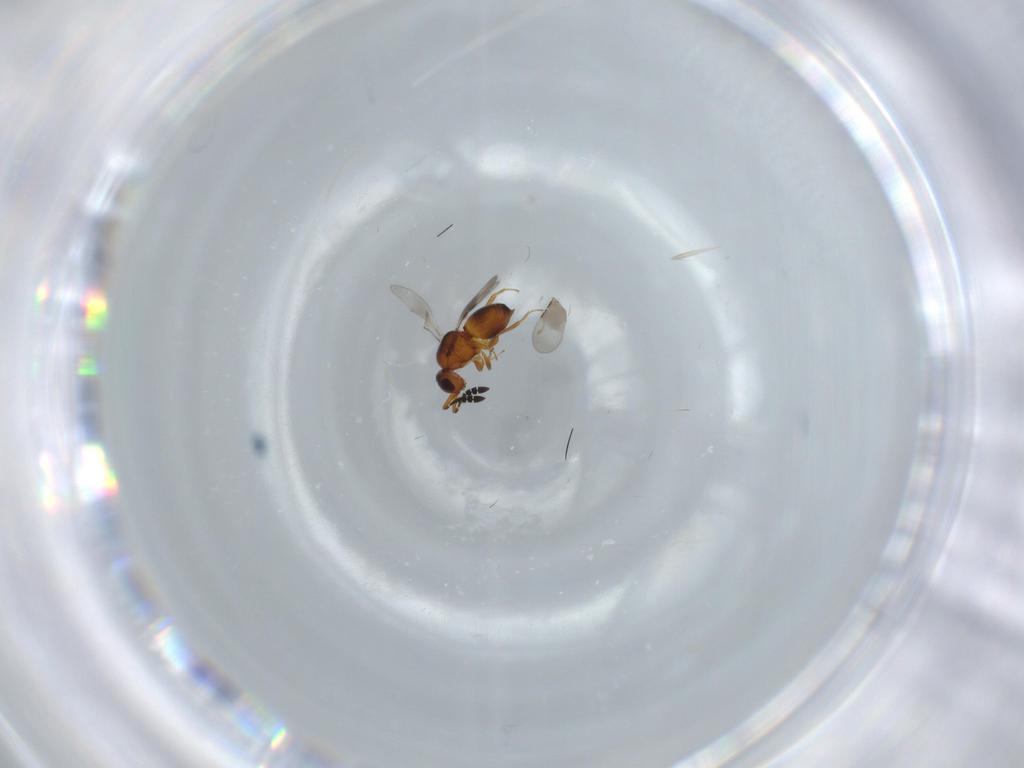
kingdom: Animalia
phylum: Arthropoda
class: Insecta
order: Hymenoptera
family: Ceraphronidae
